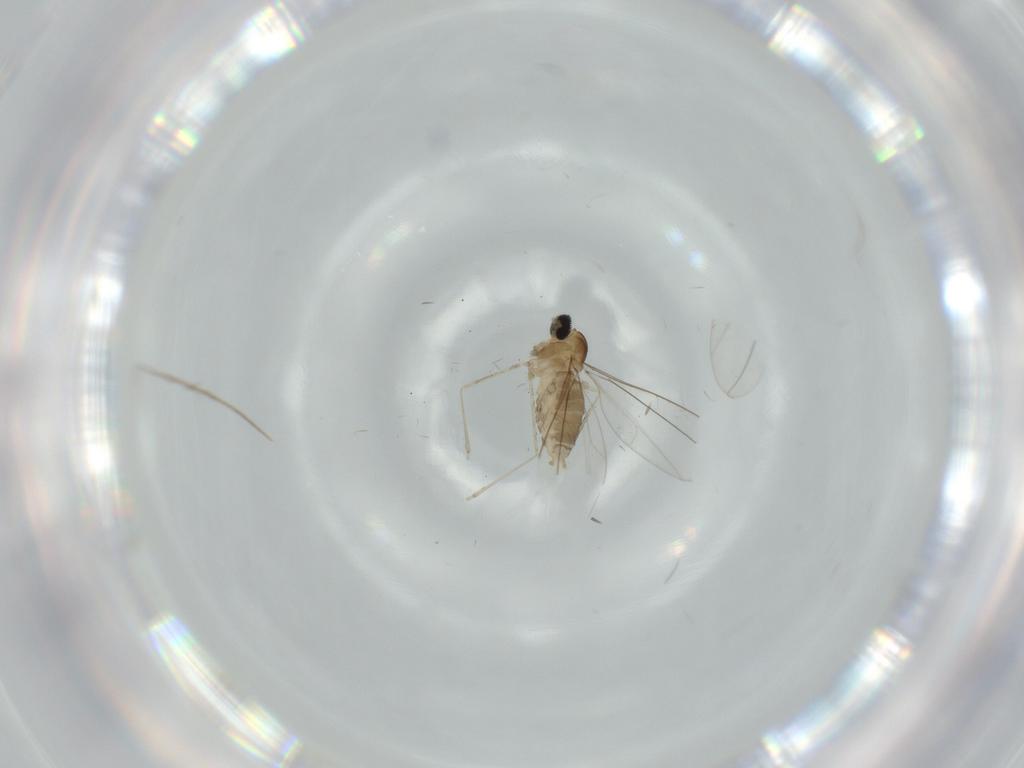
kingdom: Animalia
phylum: Arthropoda
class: Insecta
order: Diptera
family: Cecidomyiidae
